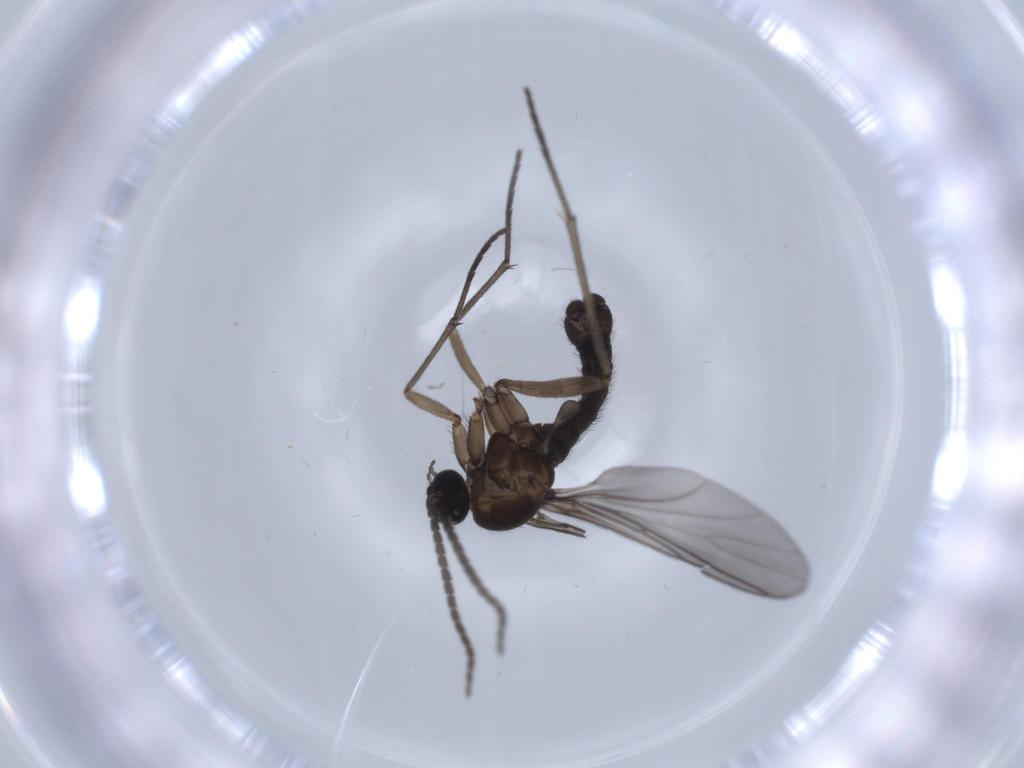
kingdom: Animalia
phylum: Arthropoda
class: Insecta
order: Diptera
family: Sciaridae
